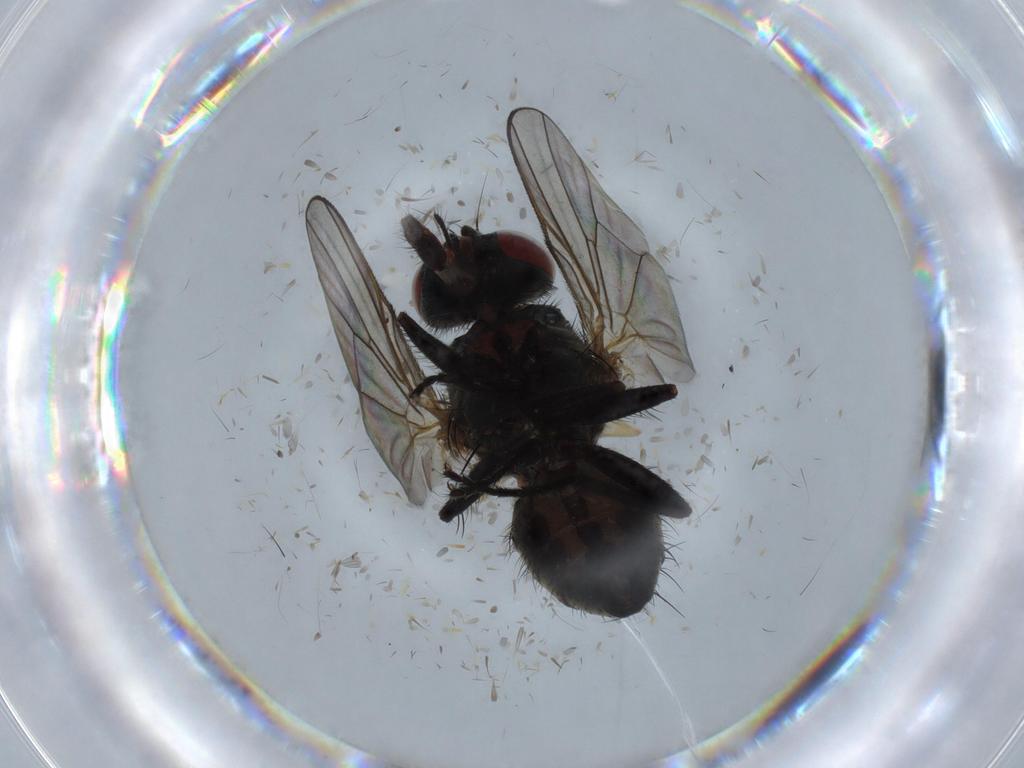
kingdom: Animalia
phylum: Arthropoda
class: Insecta
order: Diptera
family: Muscidae
